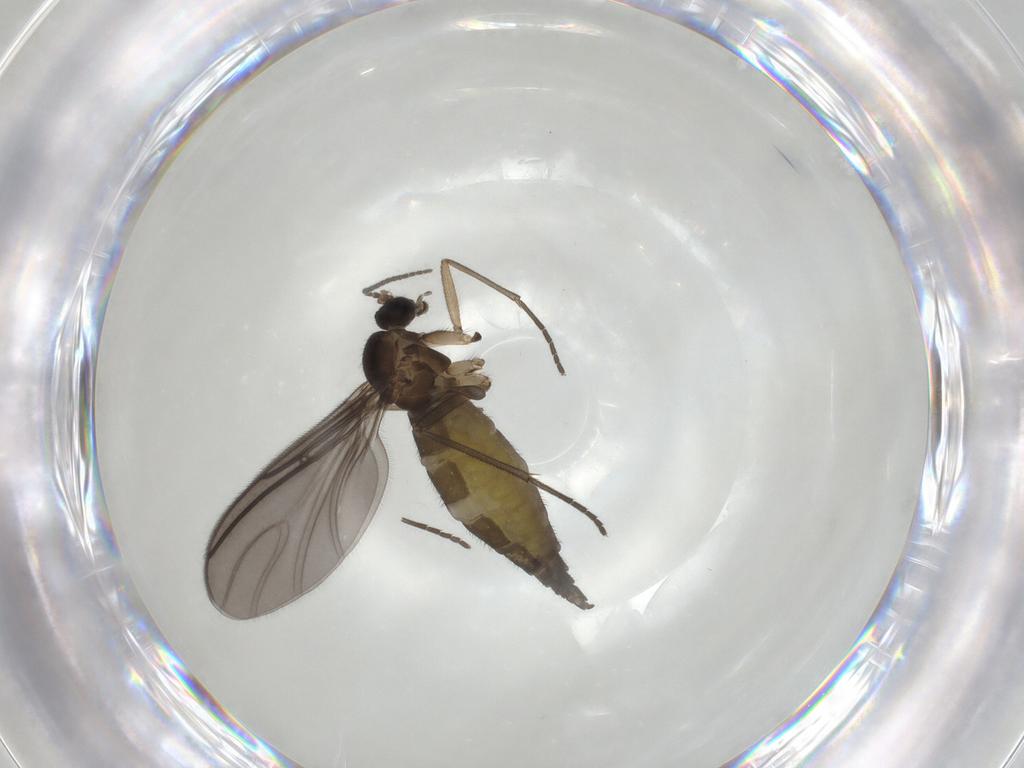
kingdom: Animalia
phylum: Arthropoda
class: Insecta
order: Diptera
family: Sciaridae
